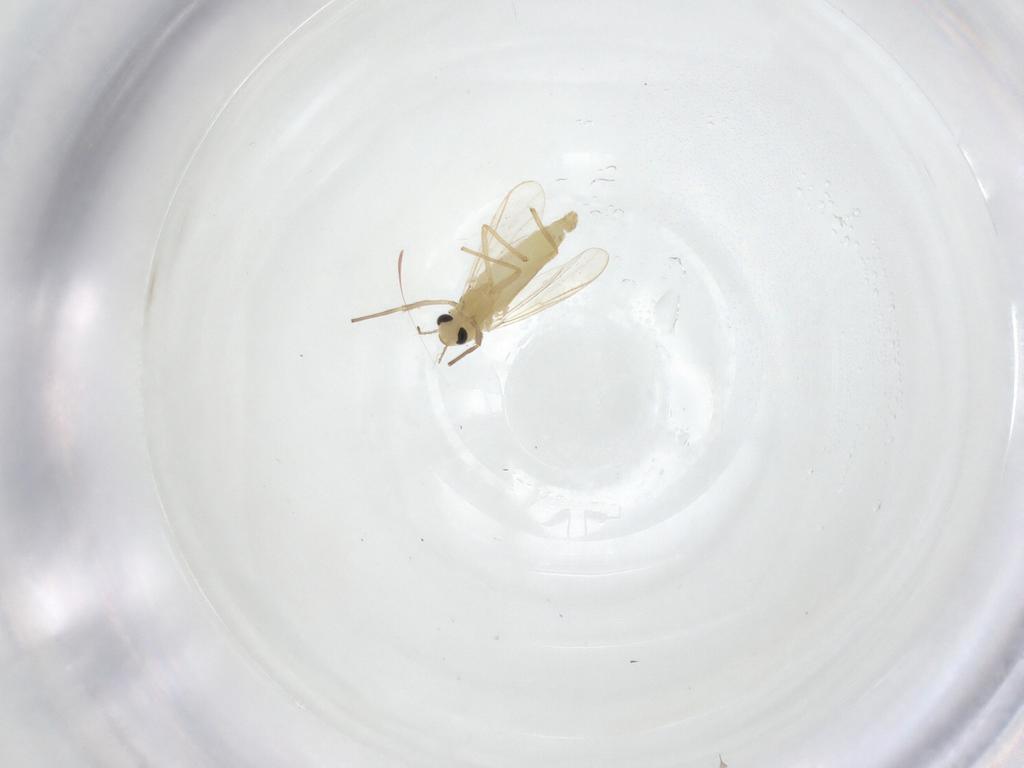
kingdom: Animalia
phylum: Arthropoda
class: Insecta
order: Diptera
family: Chironomidae
